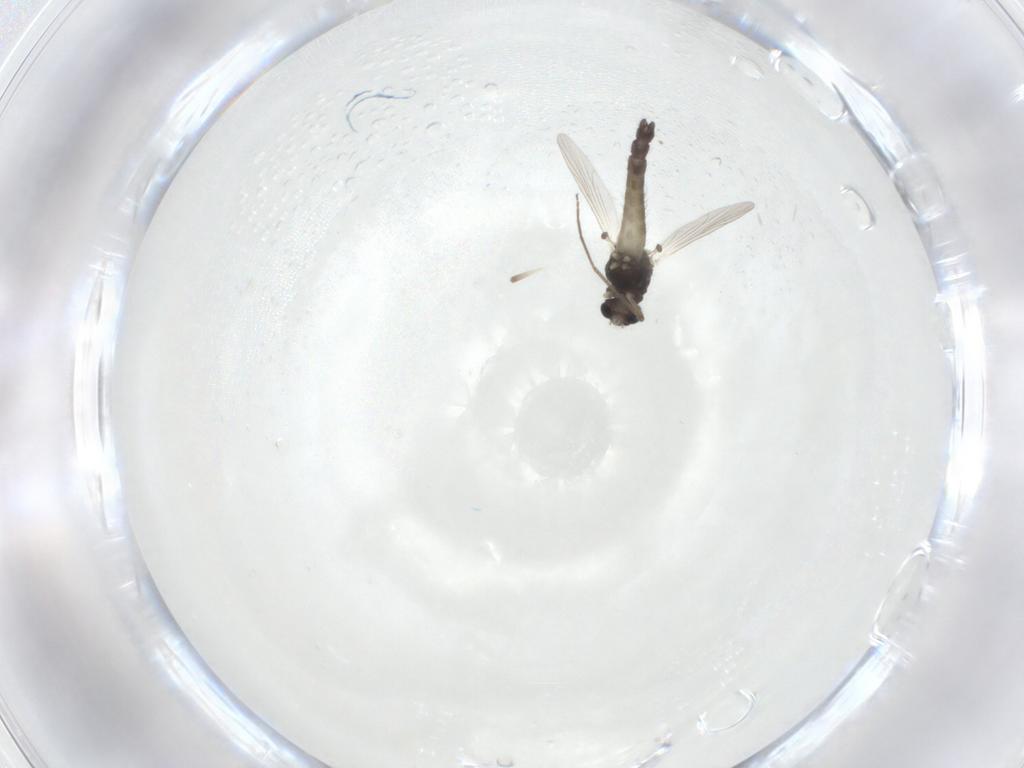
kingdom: Animalia
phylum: Arthropoda
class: Insecta
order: Diptera
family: Chironomidae
